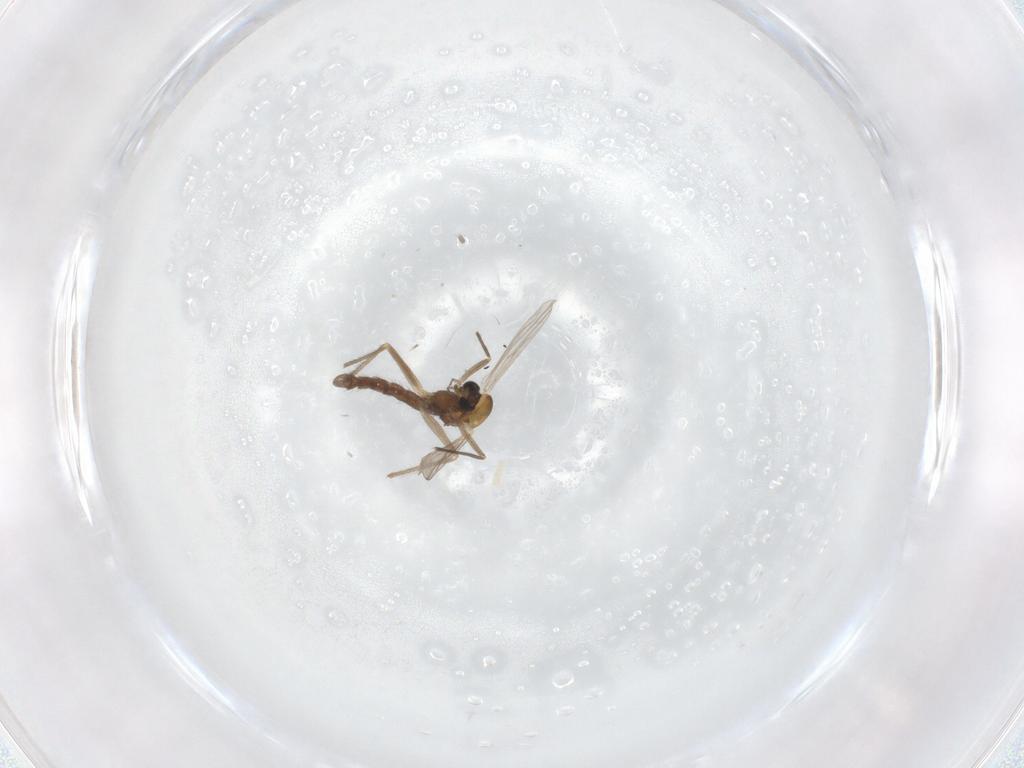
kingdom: Animalia
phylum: Arthropoda
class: Insecta
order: Diptera
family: Chironomidae
